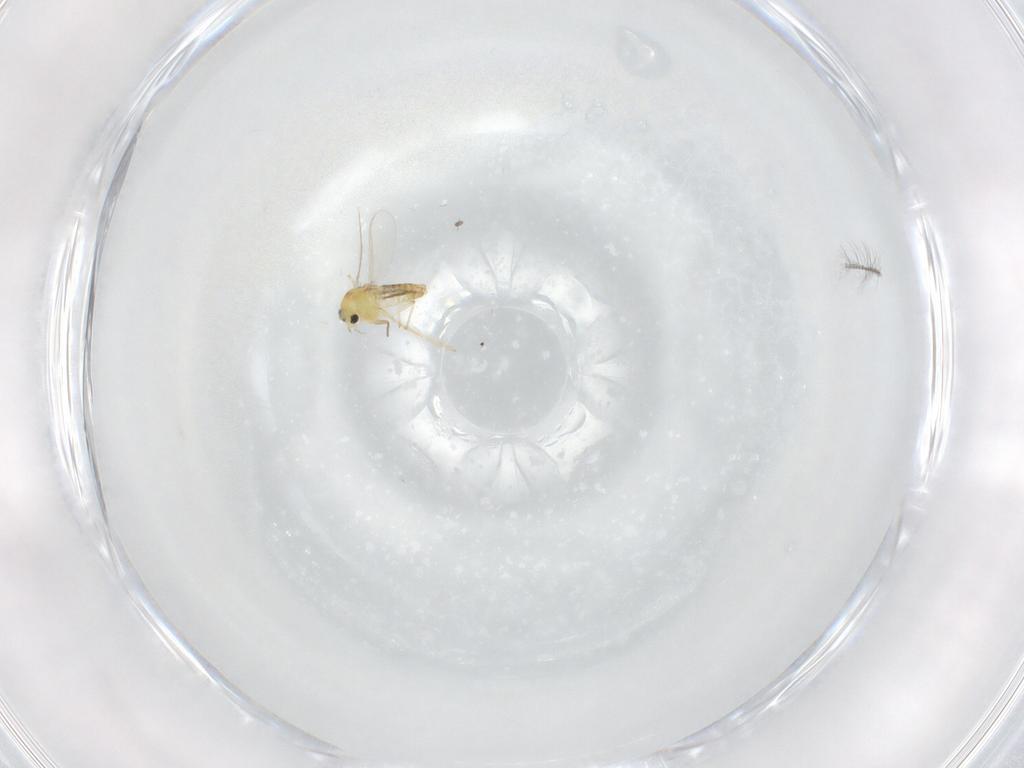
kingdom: Animalia
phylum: Arthropoda
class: Insecta
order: Diptera
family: Chironomidae
